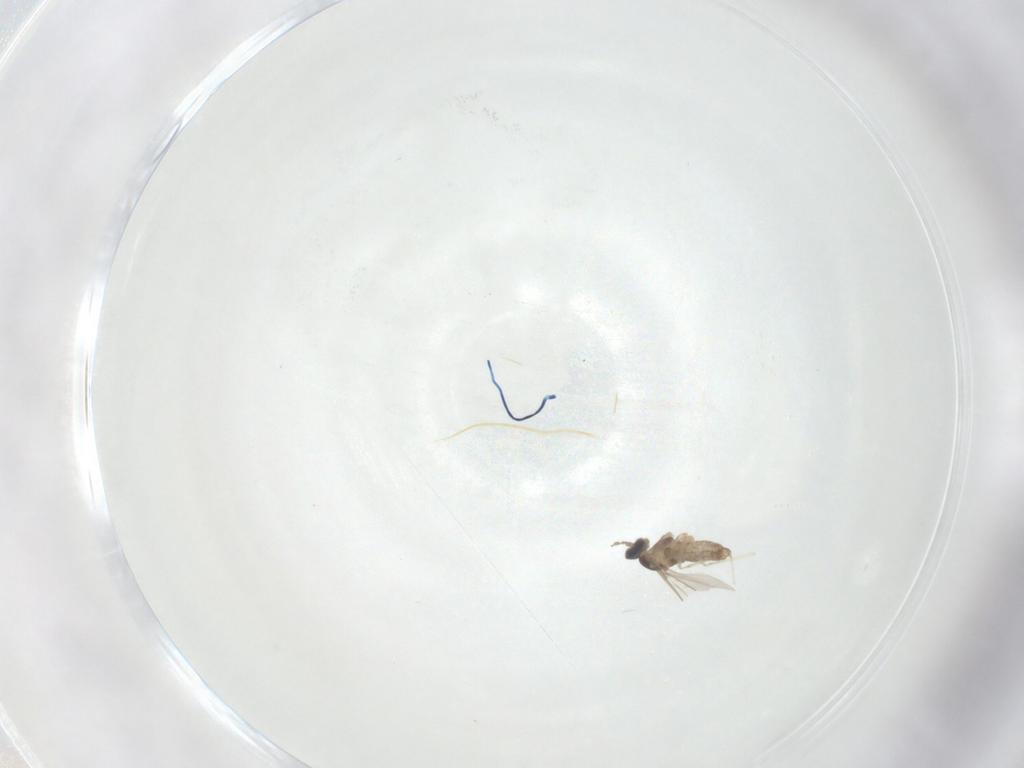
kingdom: Animalia
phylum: Arthropoda
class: Insecta
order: Diptera
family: Cecidomyiidae
